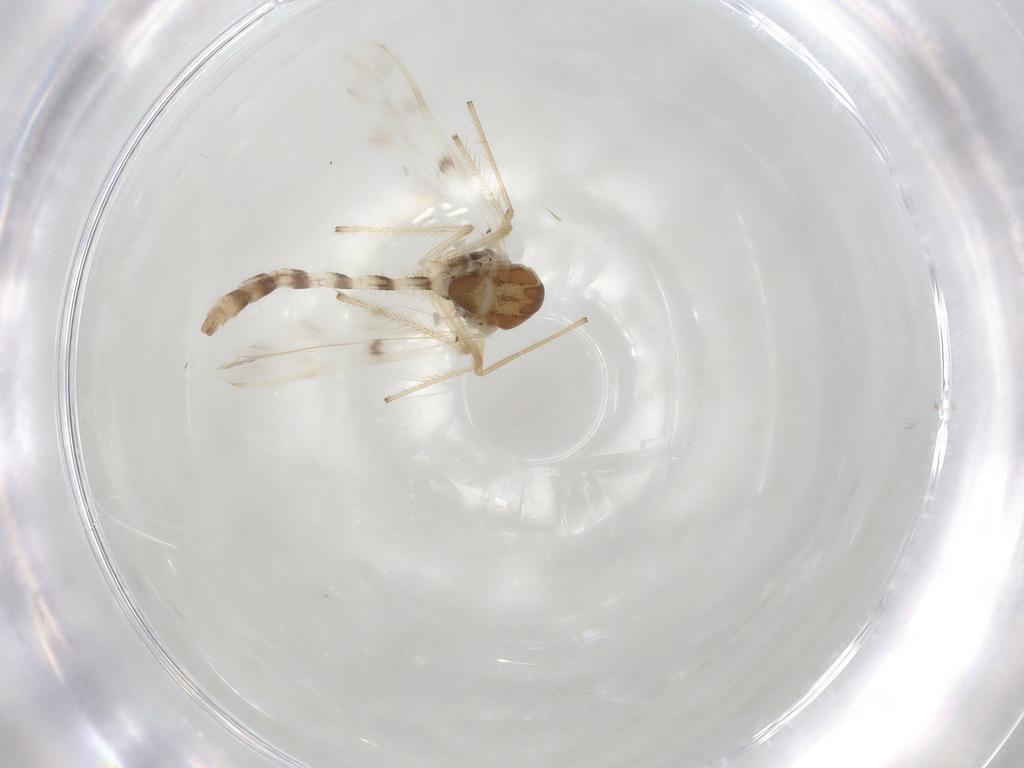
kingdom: Animalia
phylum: Arthropoda
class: Insecta
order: Diptera
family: Chironomidae
